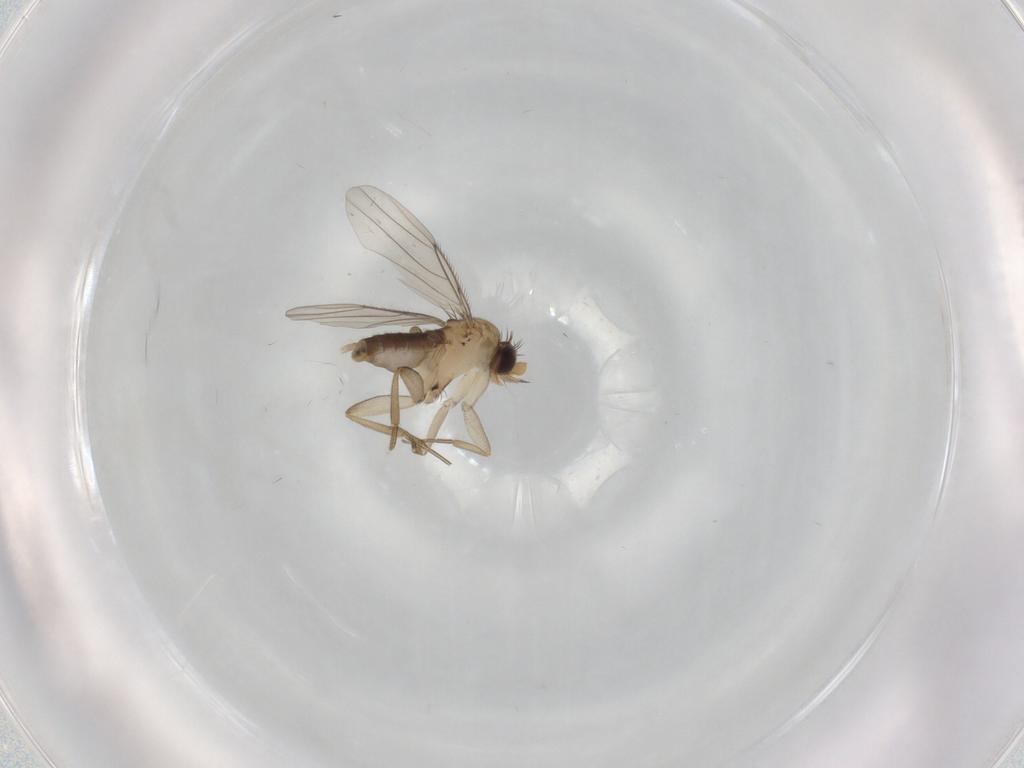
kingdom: Animalia
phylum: Arthropoda
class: Insecta
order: Diptera
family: Phoridae
